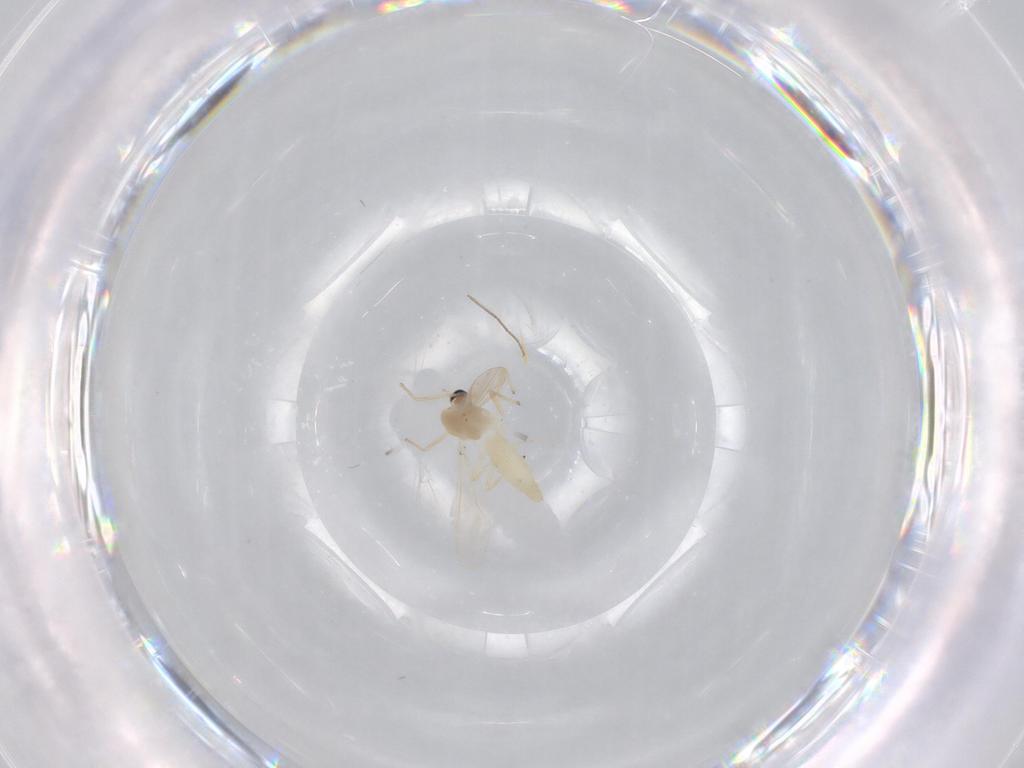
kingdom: Animalia
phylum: Arthropoda
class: Insecta
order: Diptera
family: Chironomidae
